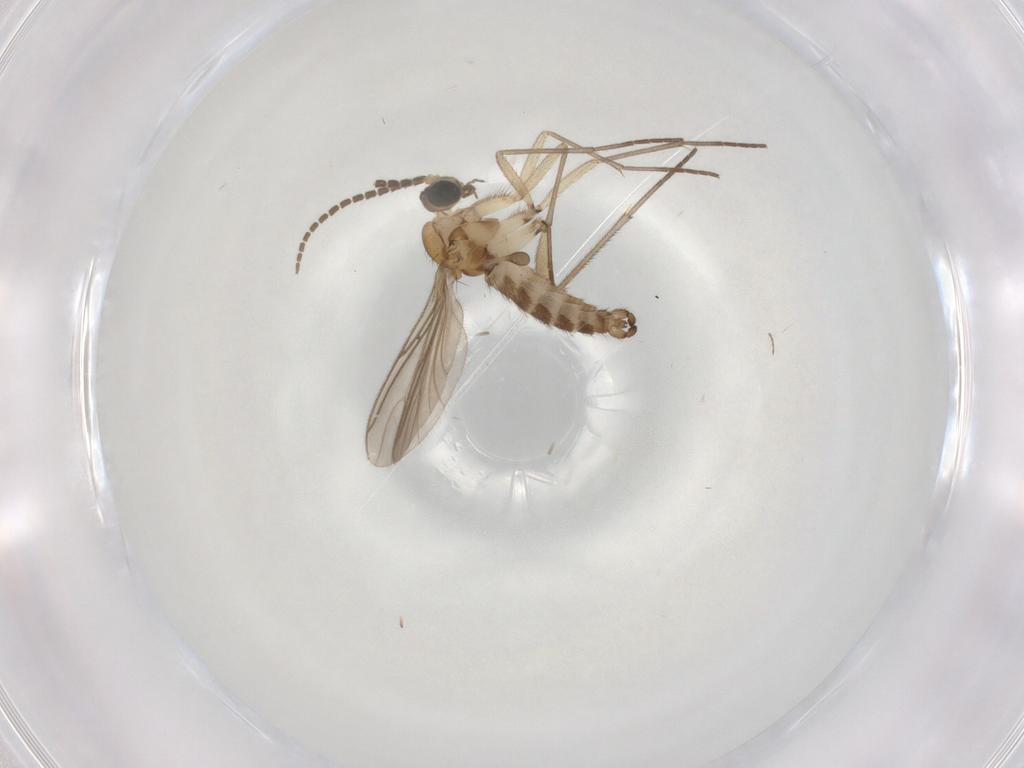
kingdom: Animalia
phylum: Arthropoda
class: Insecta
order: Diptera
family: Sciaridae
